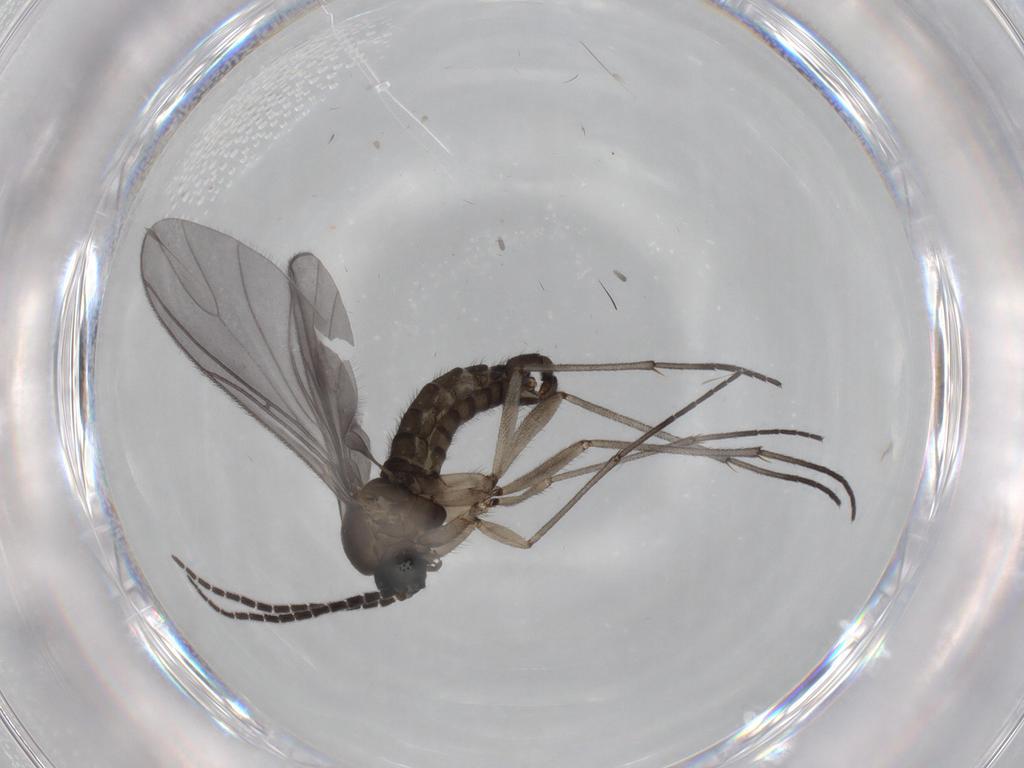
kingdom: Animalia
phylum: Arthropoda
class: Insecta
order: Diptera
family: Sciaridae
